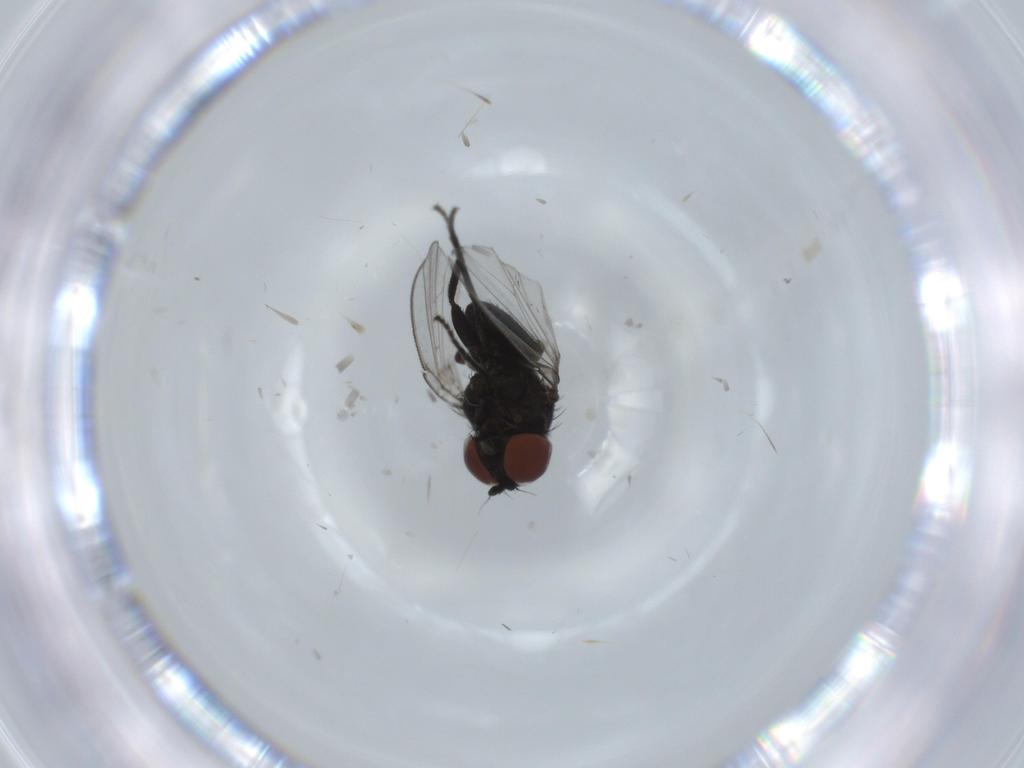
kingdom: Animalia
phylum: Arthropoda
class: Insecta
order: Diptera
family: Milichiidae
